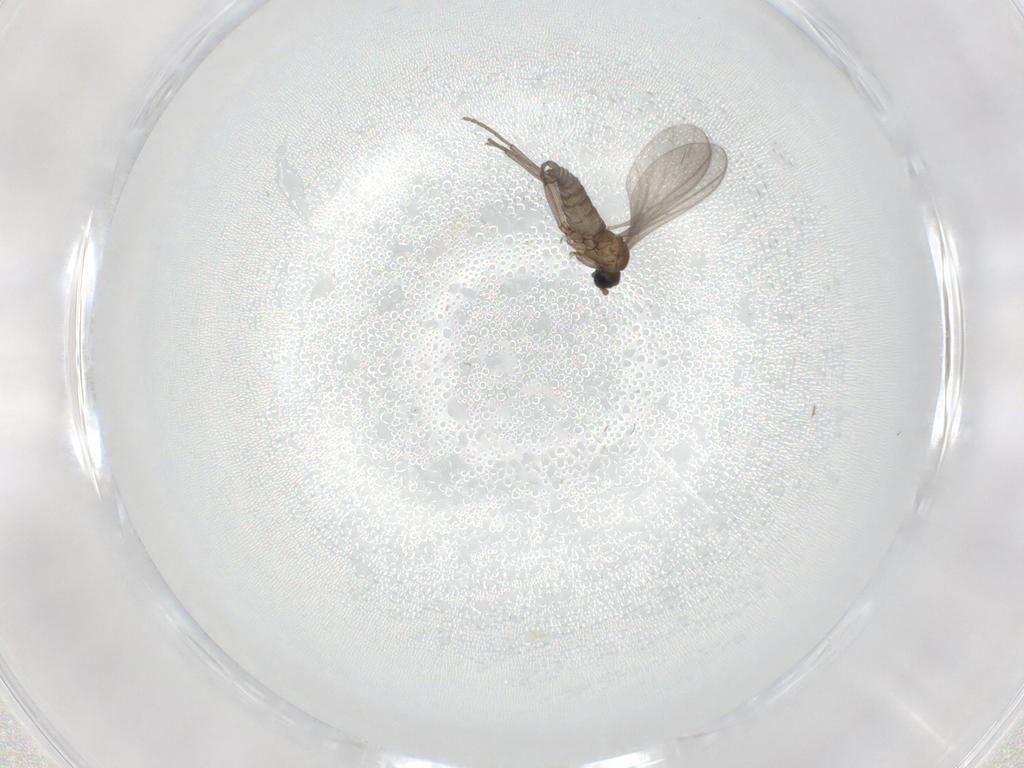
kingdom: Animalia
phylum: Arthropoda
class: Insecta
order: Diptera
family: Sciaridae
